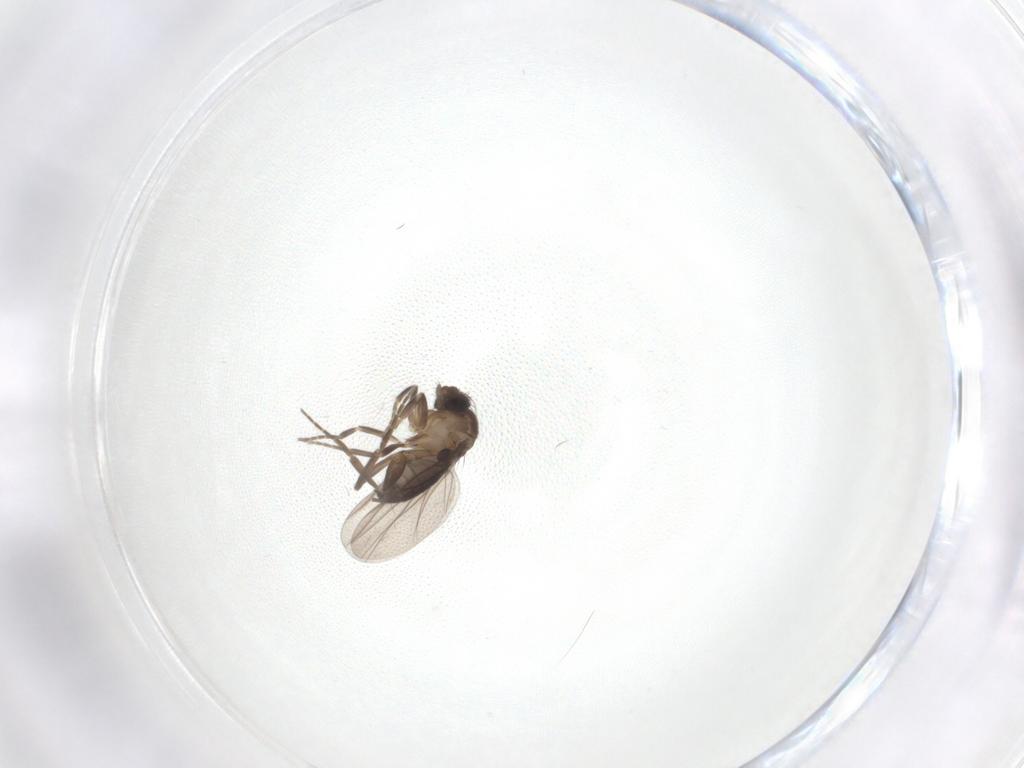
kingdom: Animalia
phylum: Arthropoda
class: Insecta
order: Diptera
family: Phoridae
